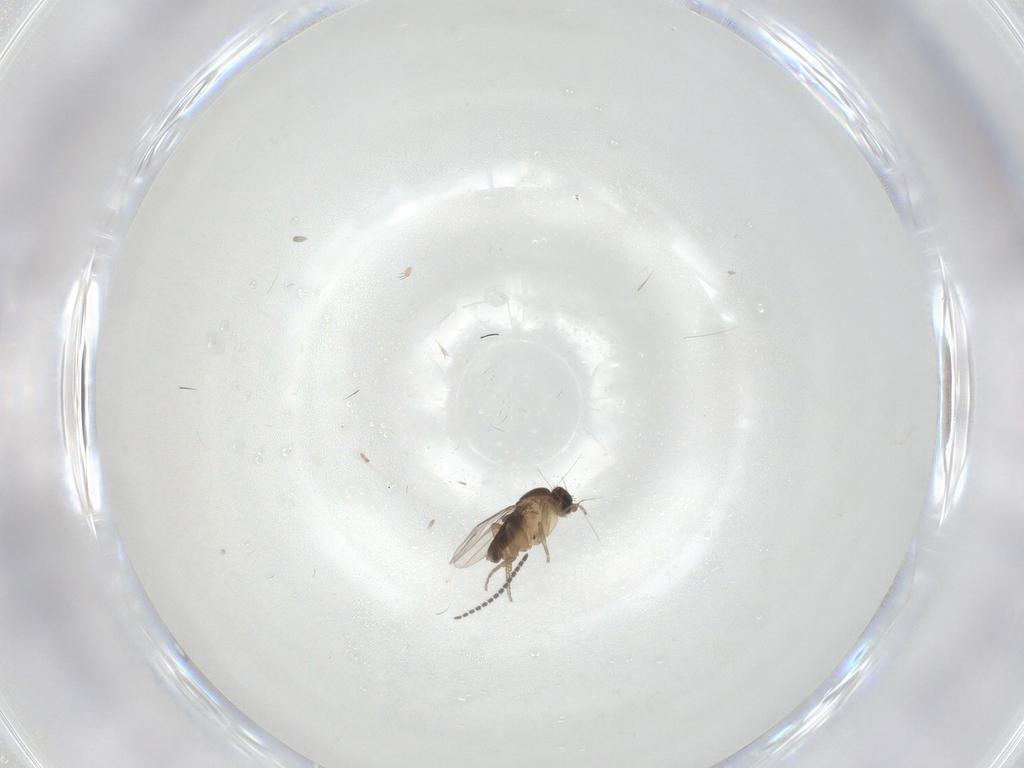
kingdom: Animalia
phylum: Arthropoda
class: Insecta
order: Diptera
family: Phoridae
